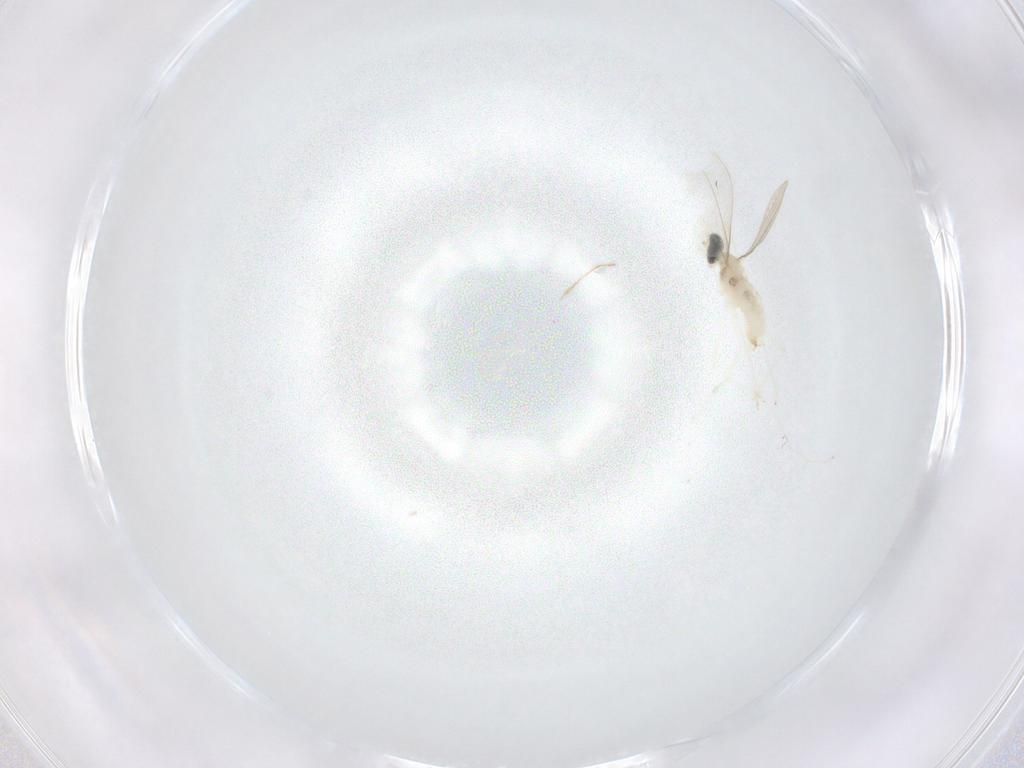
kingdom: Animalia
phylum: Arthropoda
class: Insecta
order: Diptera
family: Cecidomyiidae
